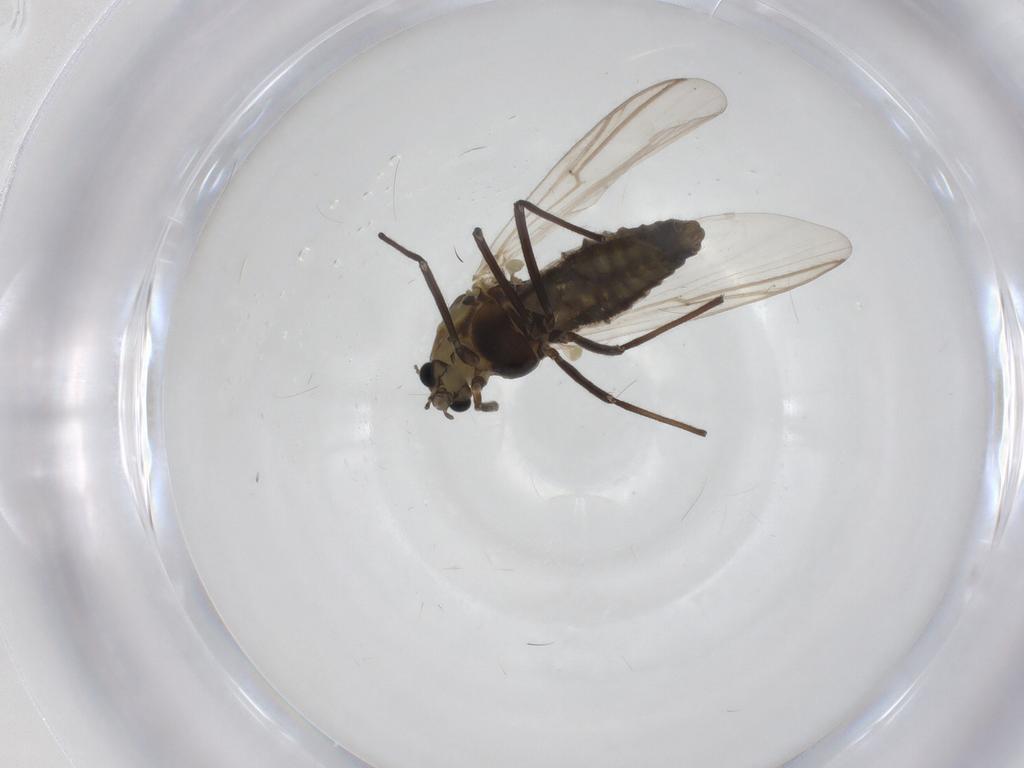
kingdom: Animalia
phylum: Arthropoda
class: Insecta
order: Diptera
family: Chironomidae
